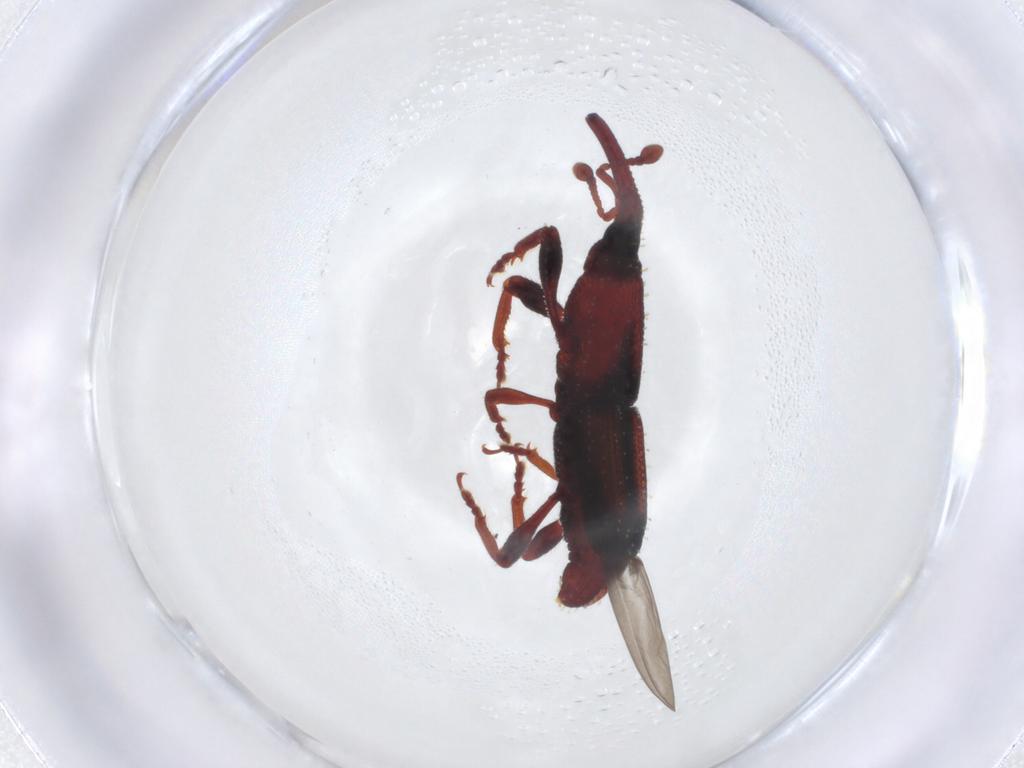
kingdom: Animalia
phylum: Arthropoda
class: Insecta
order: Coleoptera
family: Curculionidae
